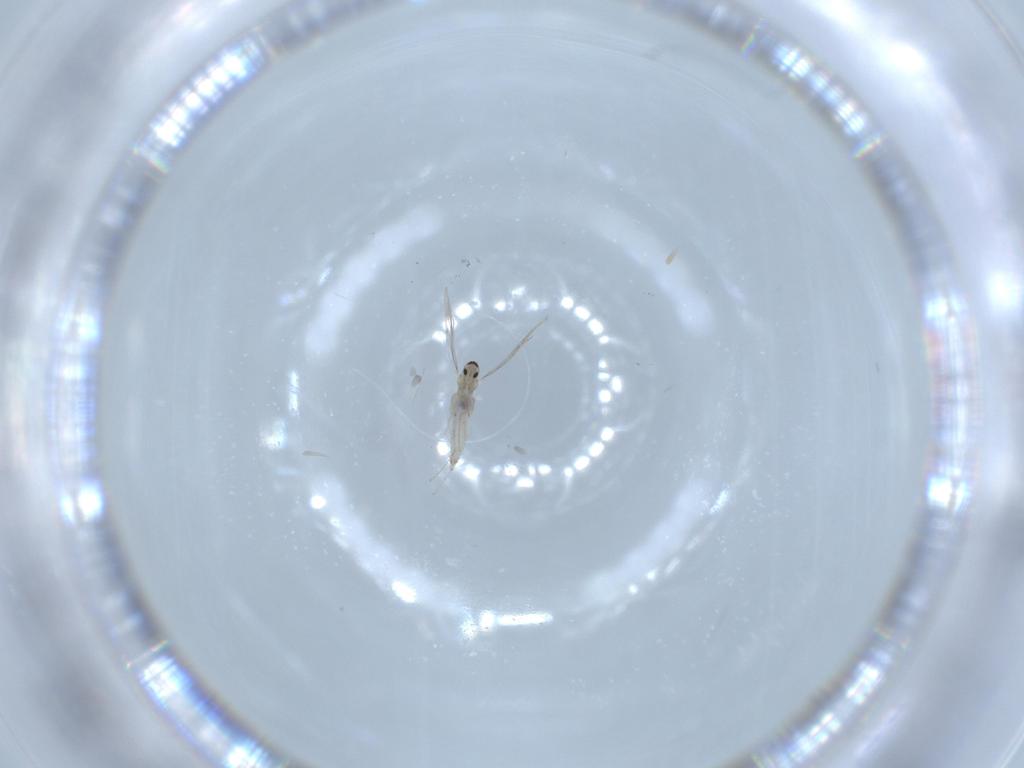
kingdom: Animalia
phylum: Arthropoda
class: Insecta
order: Diptera
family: Cecidomyiidae
